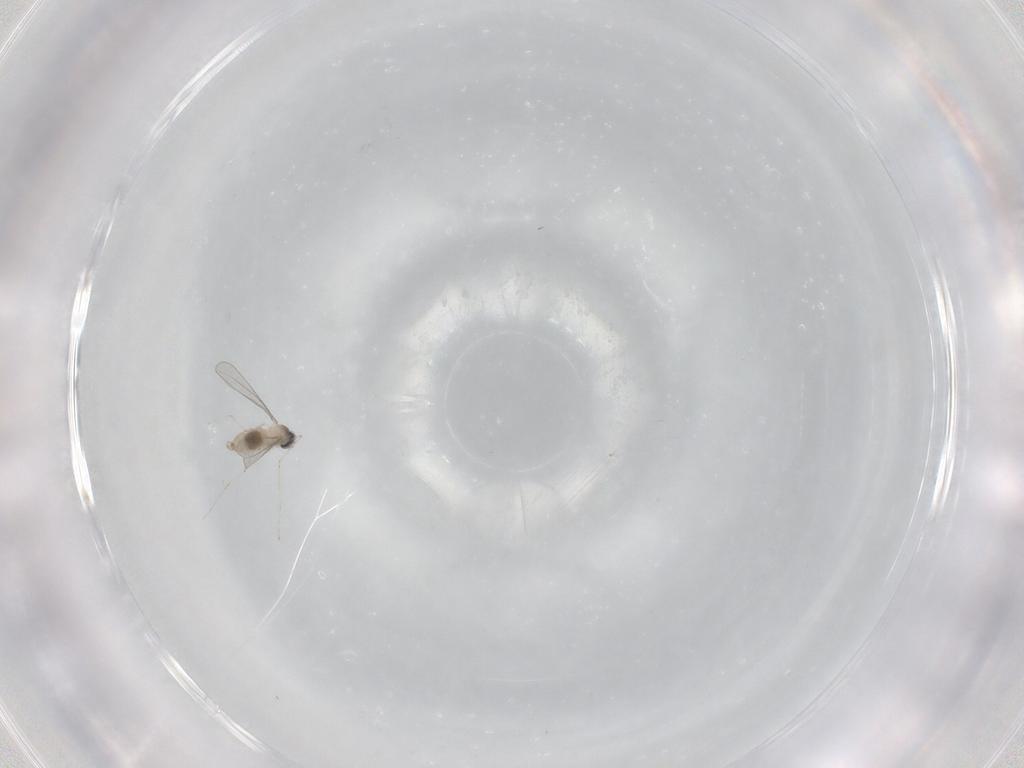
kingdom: Animalia
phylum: Arthropoda
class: Insecta
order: Diptera
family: Cecidomyiidae
